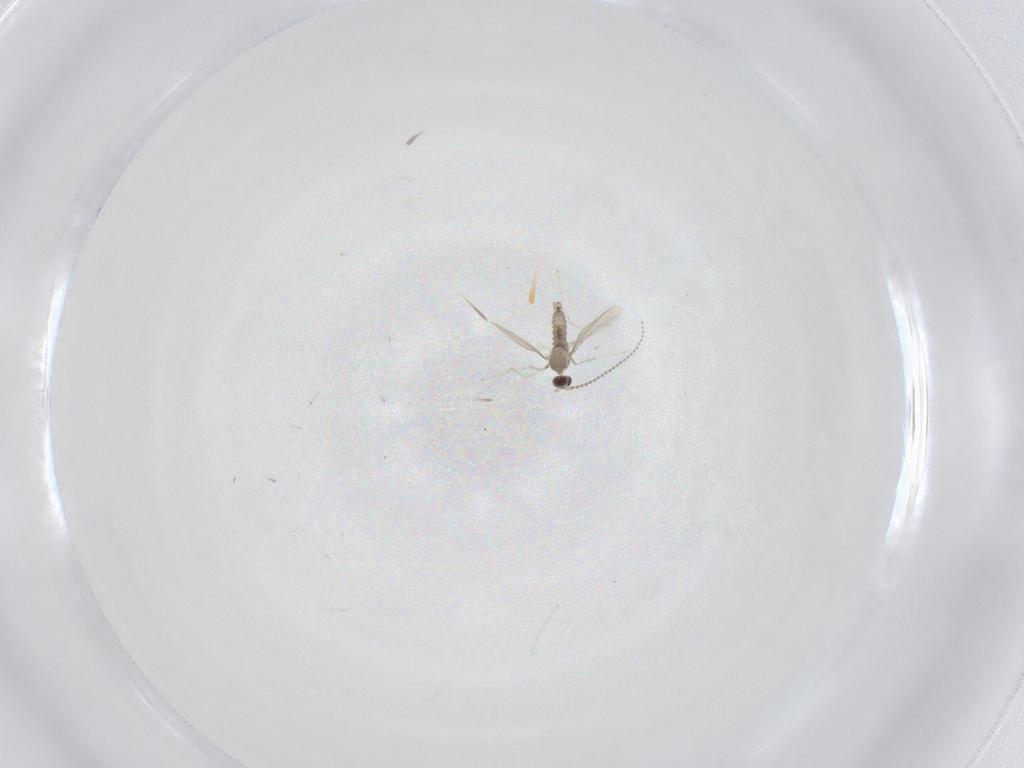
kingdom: Animalia
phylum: Arthropoda
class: Insecta
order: Diptera
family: Cecidomyiidae
